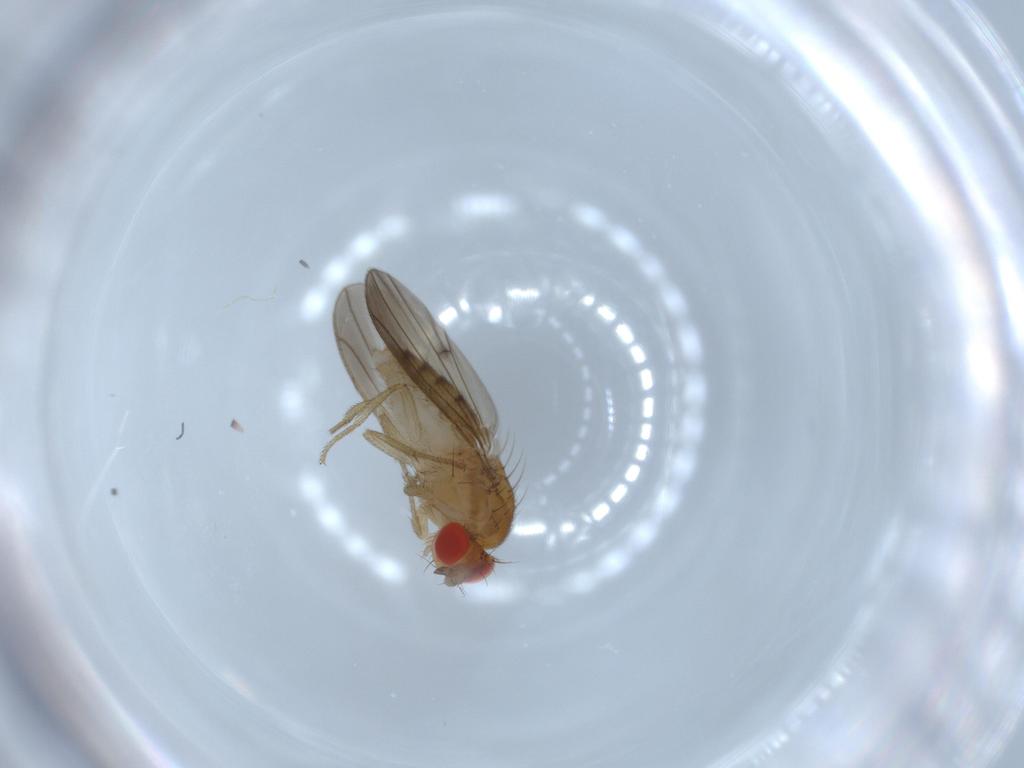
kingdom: Animalia
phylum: Arthropoda
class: Insecta
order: Diptera
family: Drosophilidae
